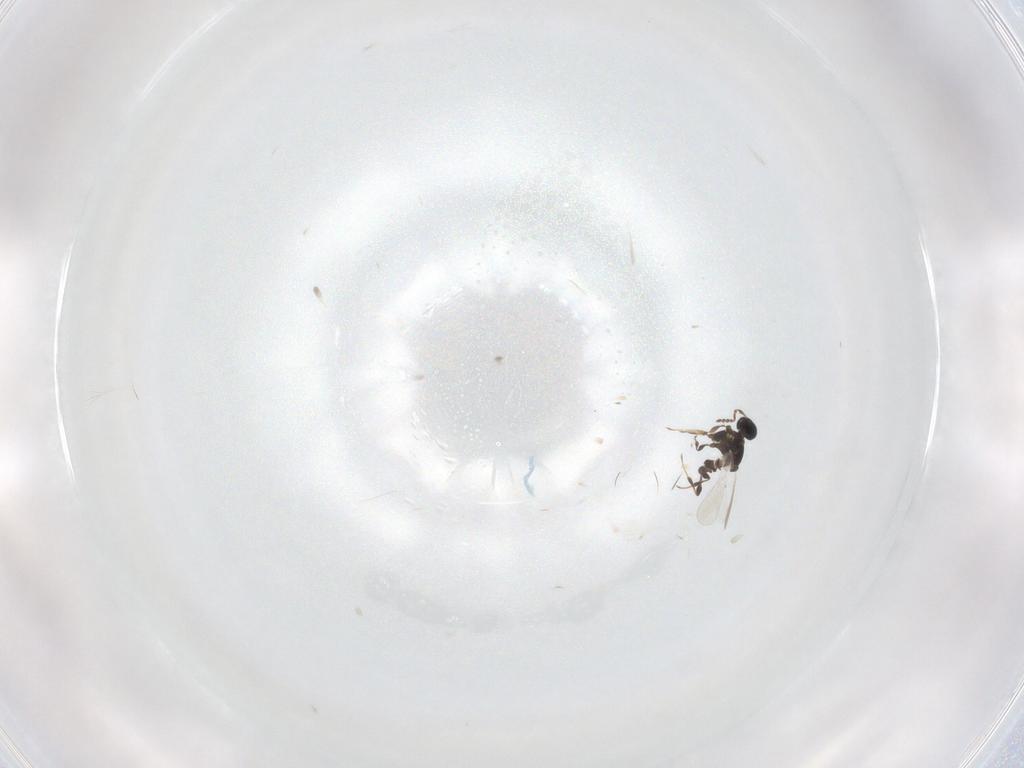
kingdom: Animalia
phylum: Arthropoda
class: Insecta
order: Hymenoptera
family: Platygastridae
